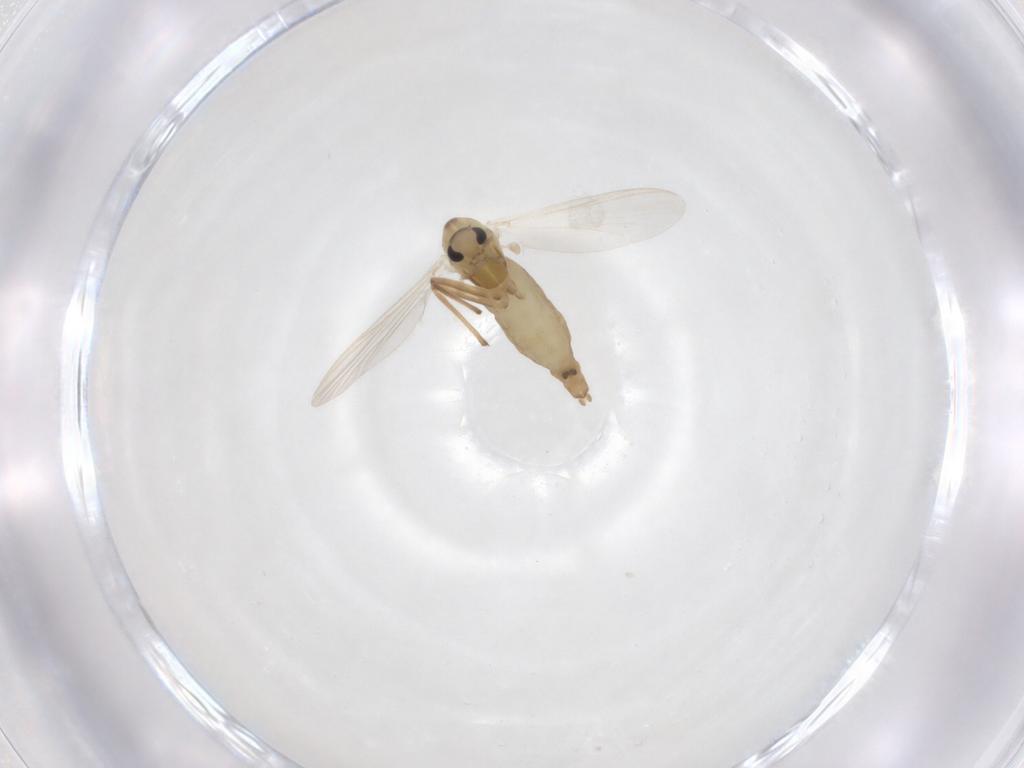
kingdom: Animalia
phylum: Arthropoda
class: Insecta
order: Diptera
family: Chironomidae
